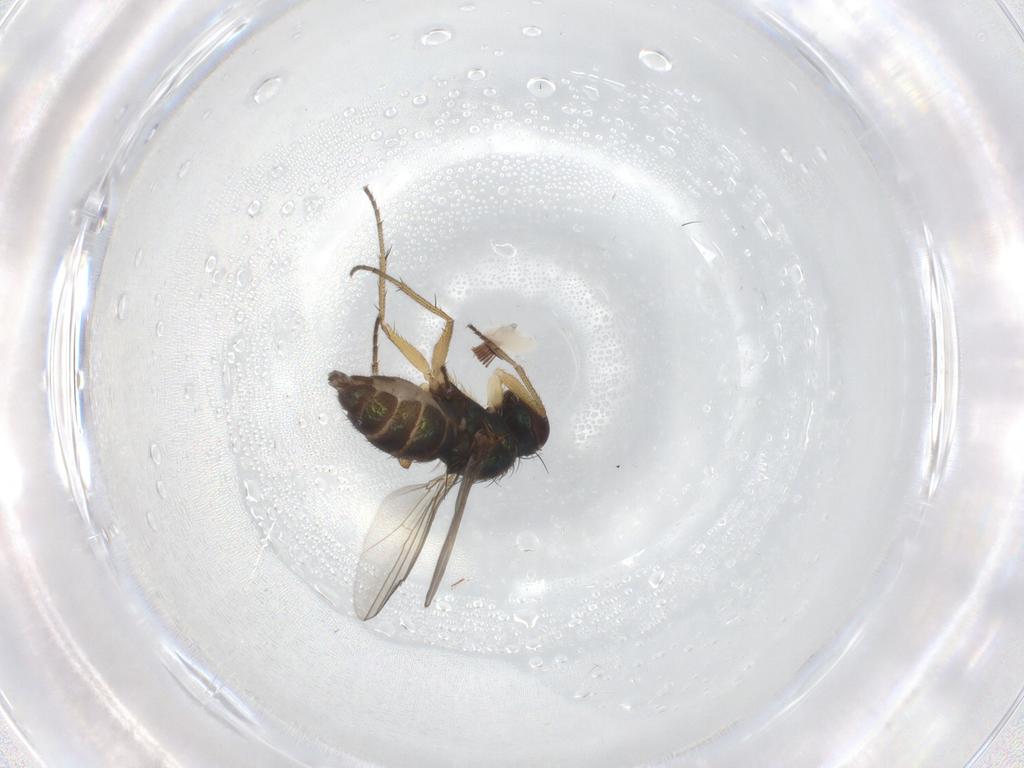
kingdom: Animalia
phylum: Arthropoda
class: Insecta
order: Diptera
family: Dolichopodidae
